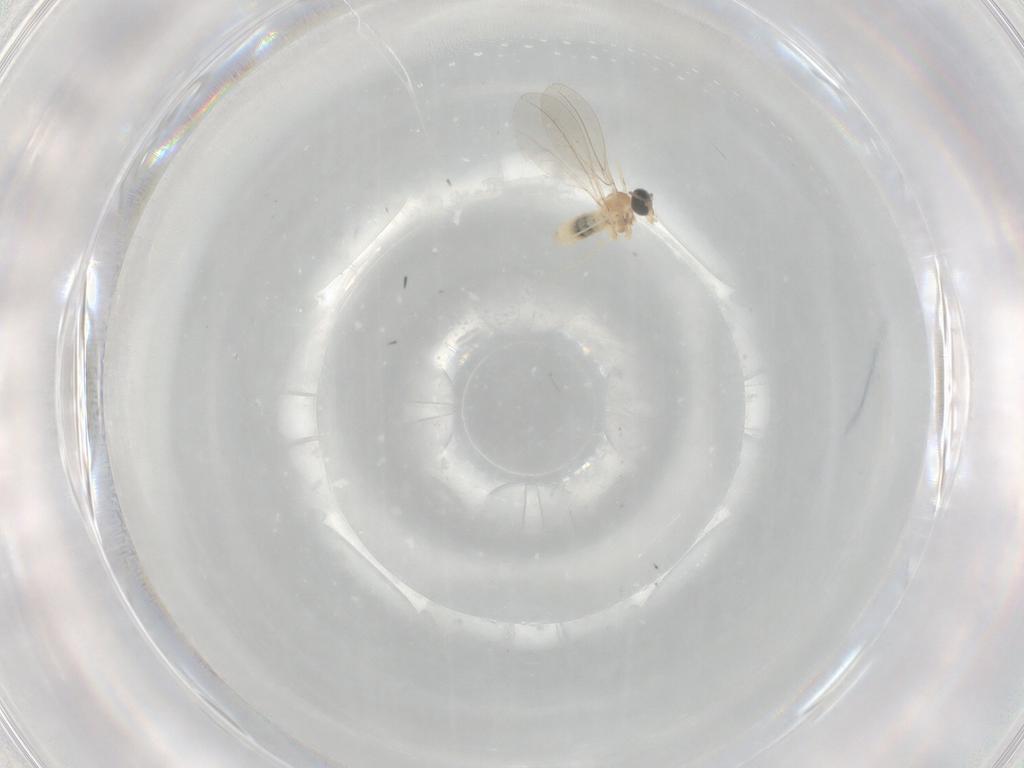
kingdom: Animalia
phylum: Arthropoda
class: Insecta
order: Diptera
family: Cecidomyiidae
